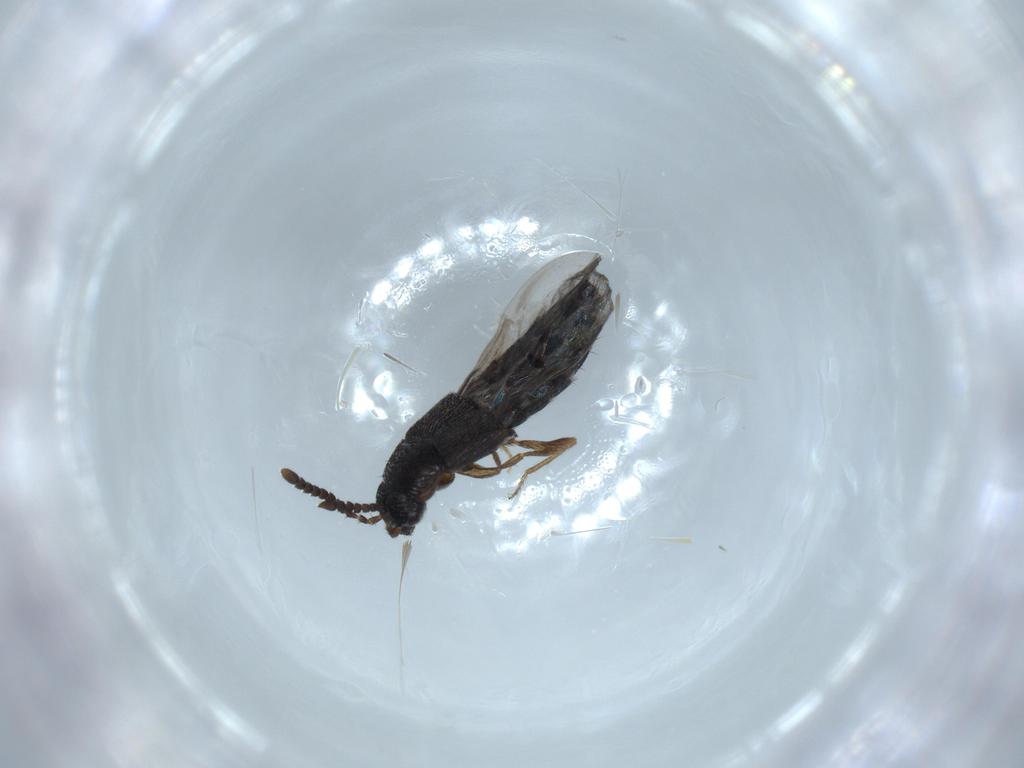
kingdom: Animalia
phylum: Arthropoda
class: Insecta
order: Coleoptera
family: Staphylinidae
